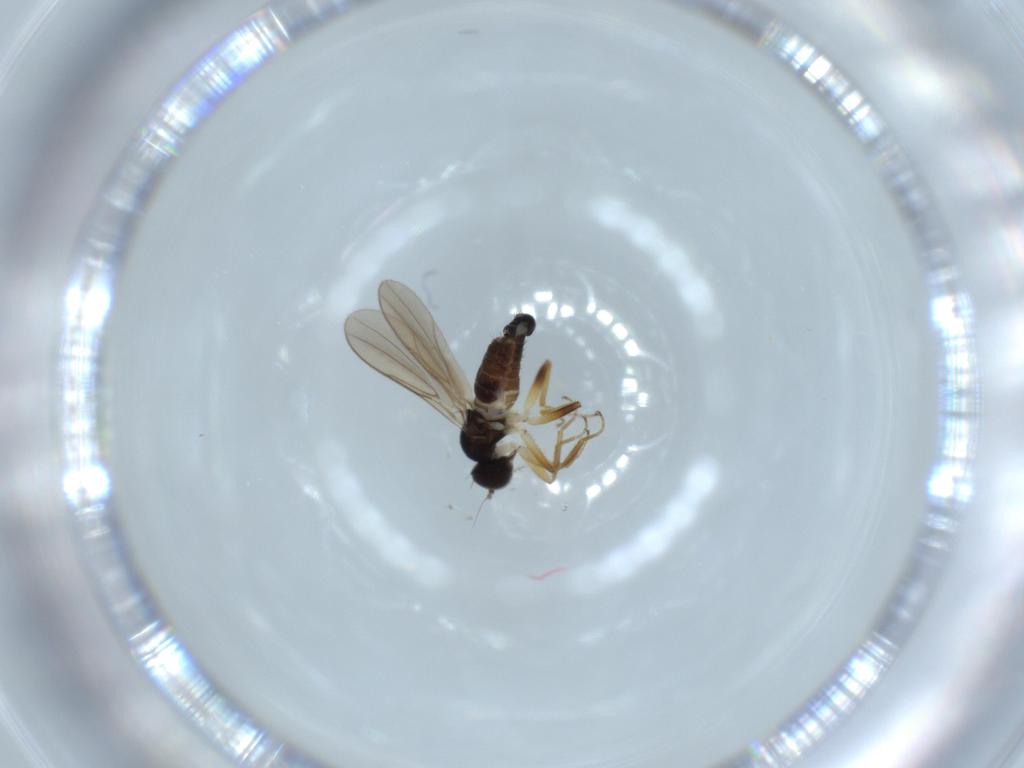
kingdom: Animalia
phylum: Arthropoda
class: Insecta
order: Diptera
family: Hybotidae
